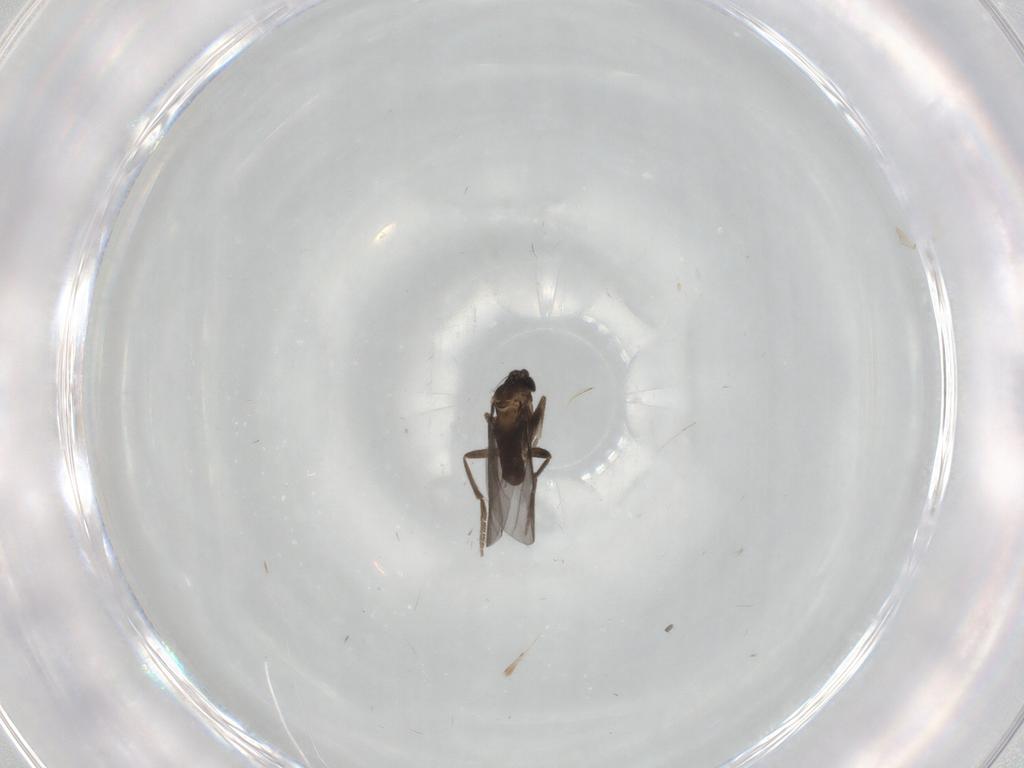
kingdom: Animalia
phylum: Arthropoda
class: Insecta
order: Diptera
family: Phoridae
